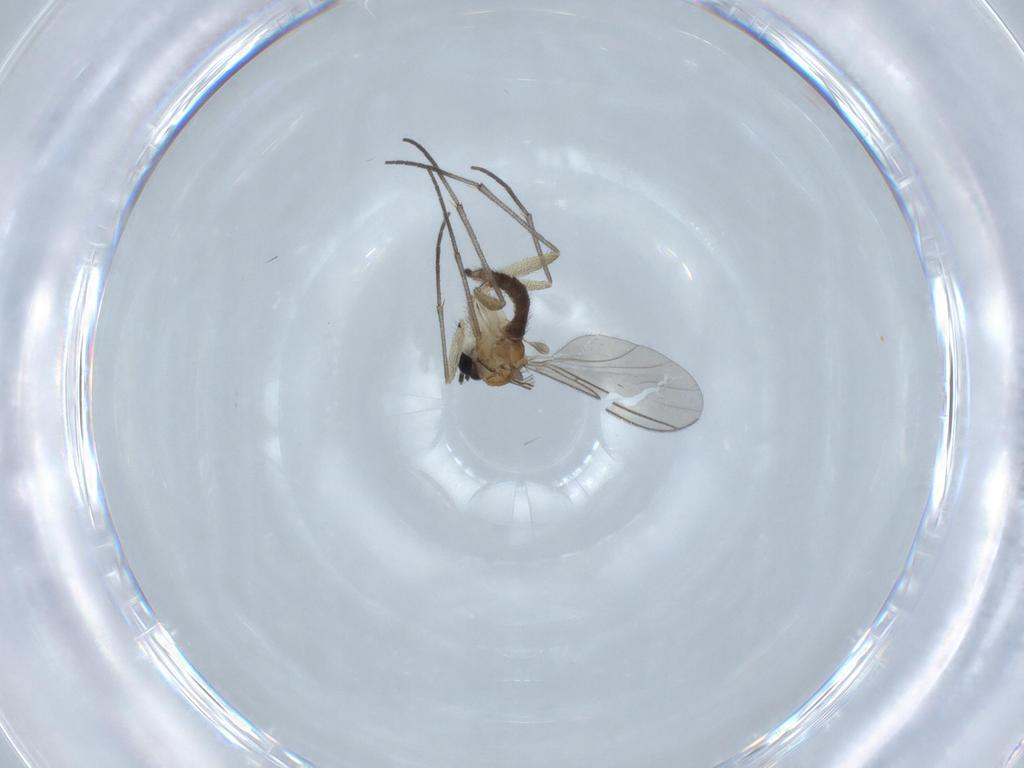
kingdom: Animalia
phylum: Arthropoda
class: Insecta
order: Diptera
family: Sciaridae
